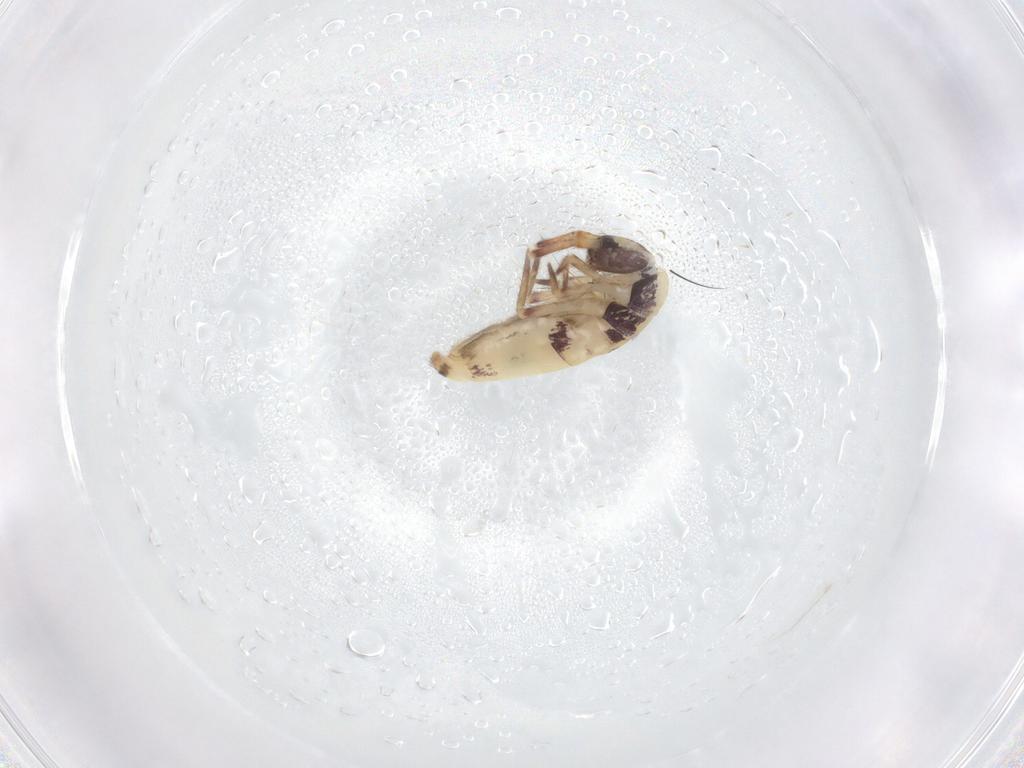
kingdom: Animalia
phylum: Arthropoda
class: Collembola
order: Entomobryomorpha
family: Entomobryidae
